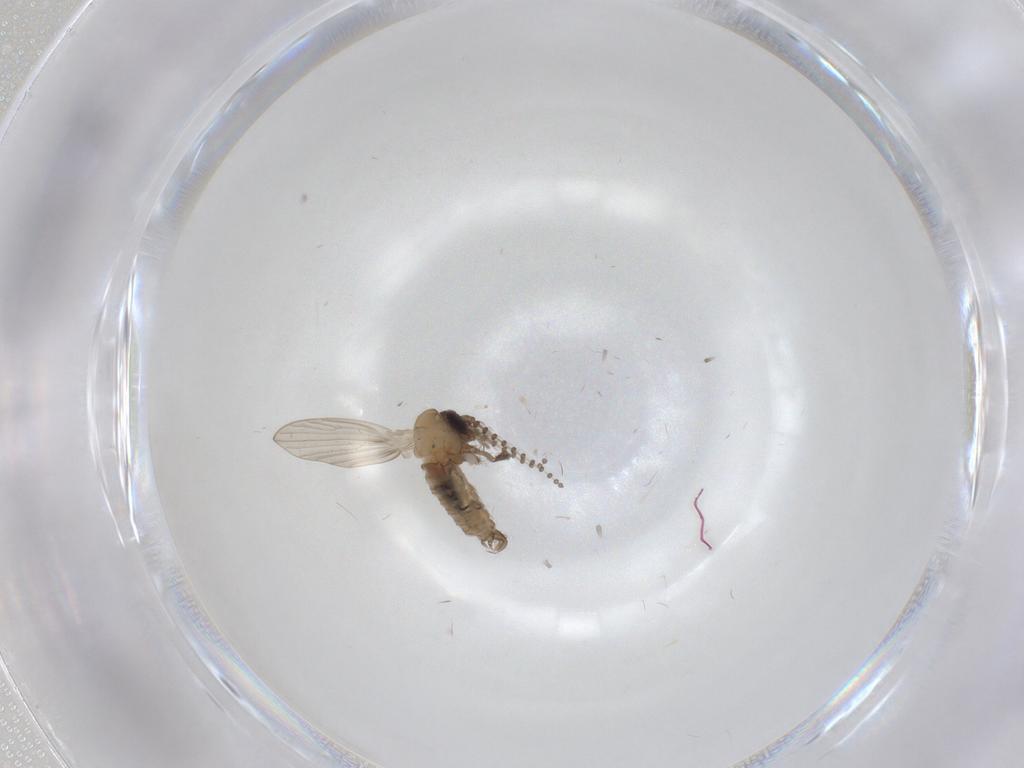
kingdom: Animalia
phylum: Arthropoda
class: Insecta
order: Diptera
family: Psychodidae
